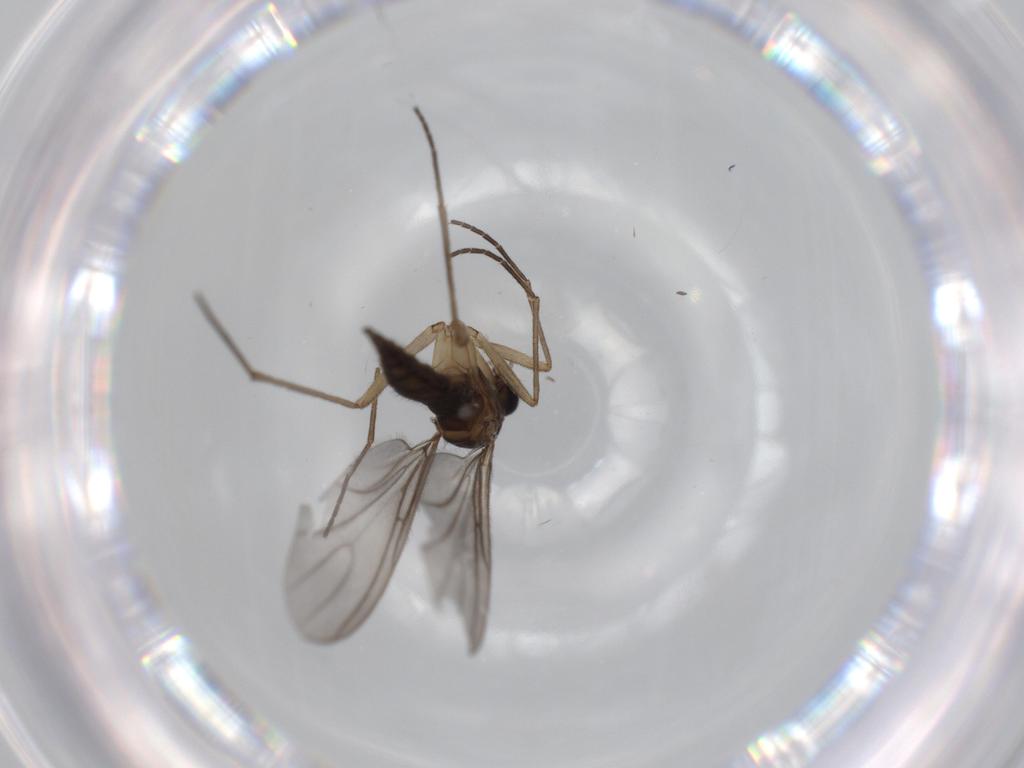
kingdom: Animalia
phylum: Arthropoda
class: Insecta
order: Diptera
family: Sciaridae
